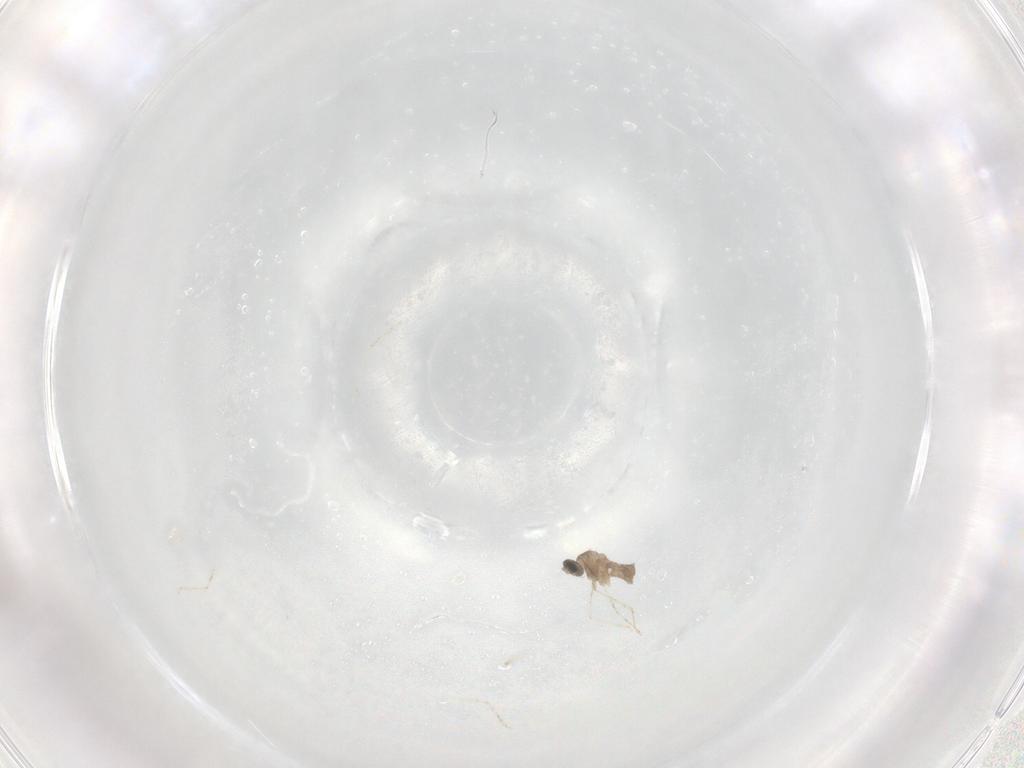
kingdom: Animalia
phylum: Arthropoda
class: Insecta
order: Diptera
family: Cecidomyiidae
